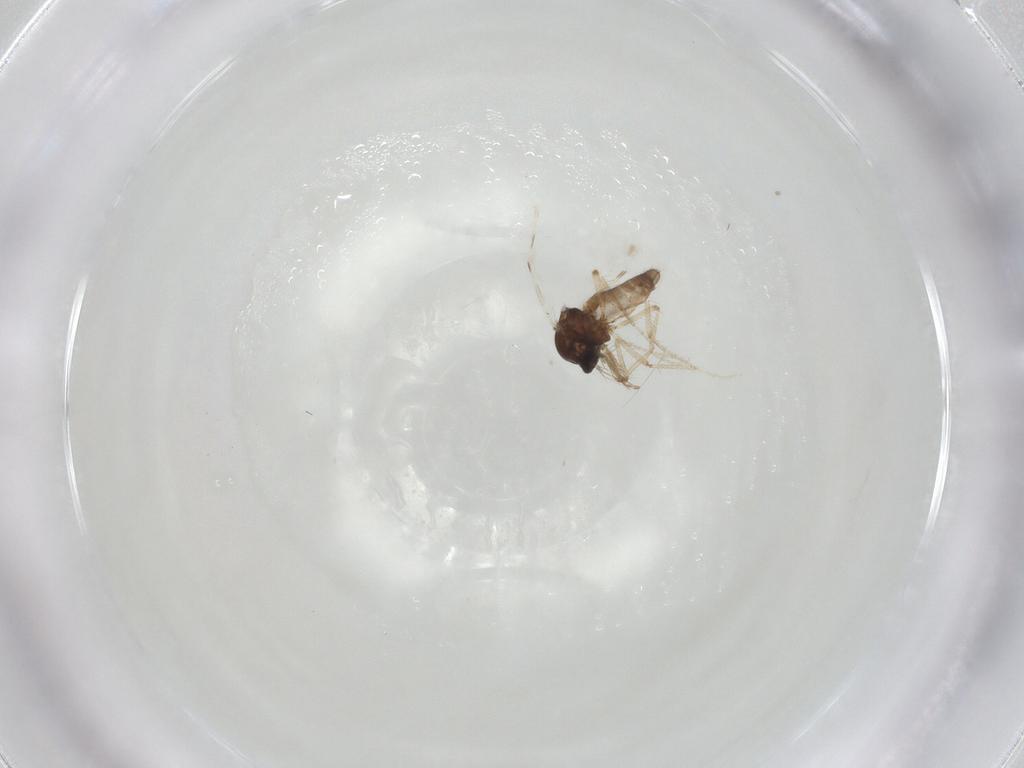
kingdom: Animalia
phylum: Arthropoda
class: Insecta
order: Diptera
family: Ceratopogonidae
